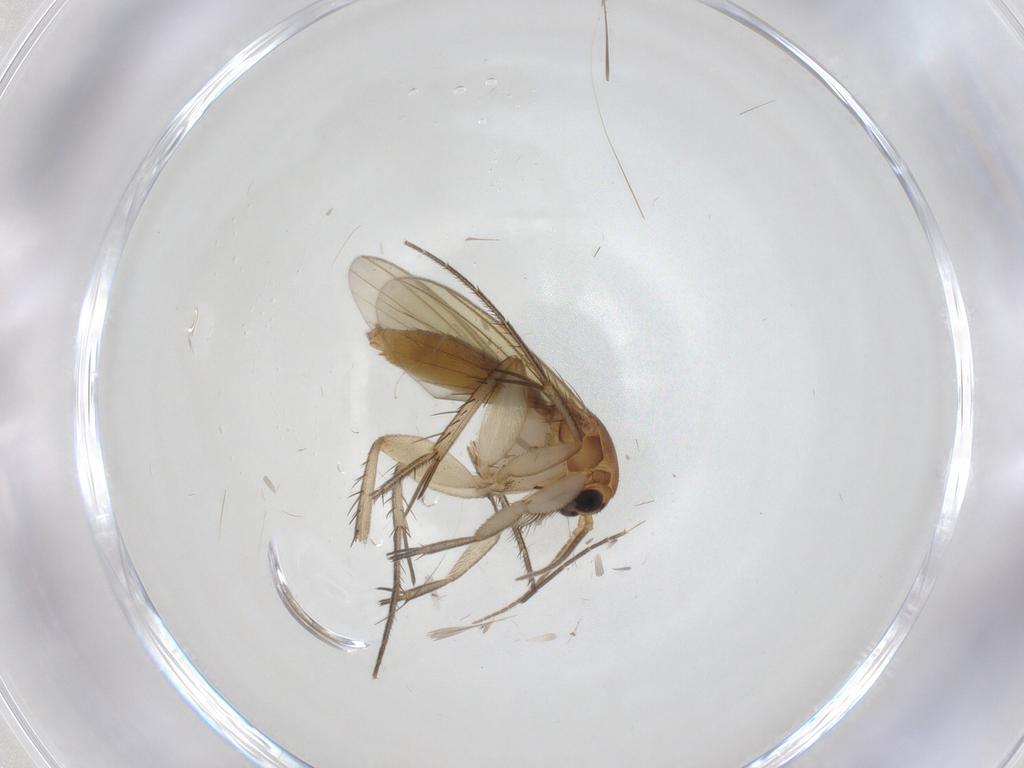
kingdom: Animalia
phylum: Arthropoda
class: Insecta
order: Diptera
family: Mycetophilidae
